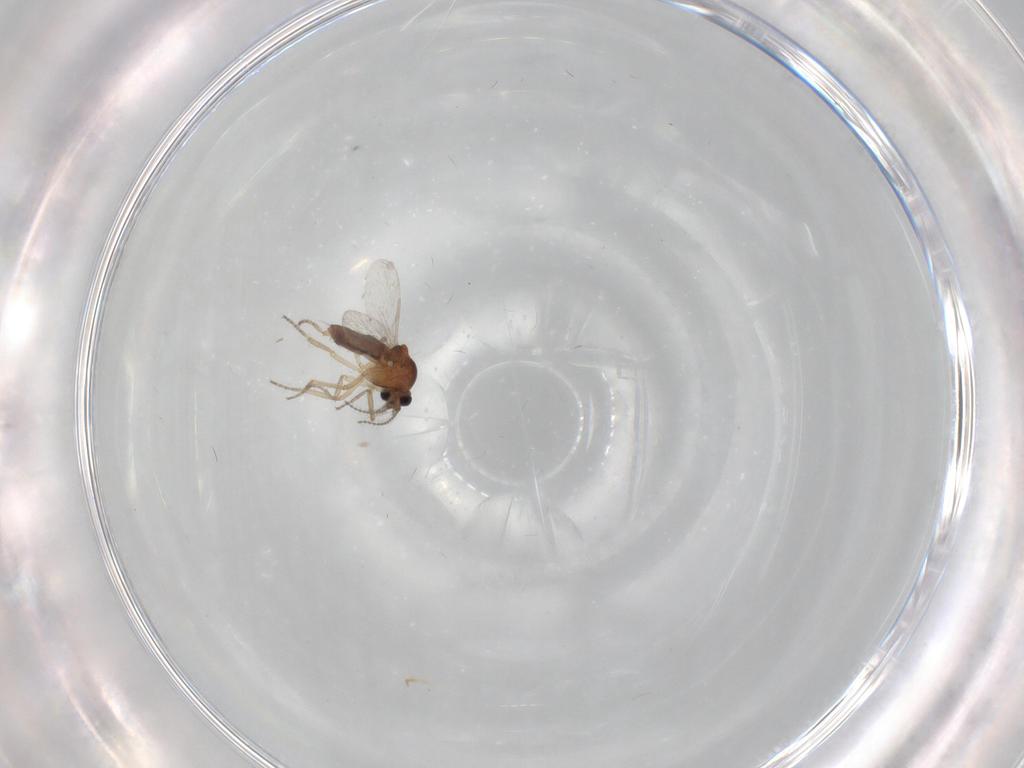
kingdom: Animalia
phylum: Arthropoda
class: Insecta
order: Diptera
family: Ceratopogonidae
